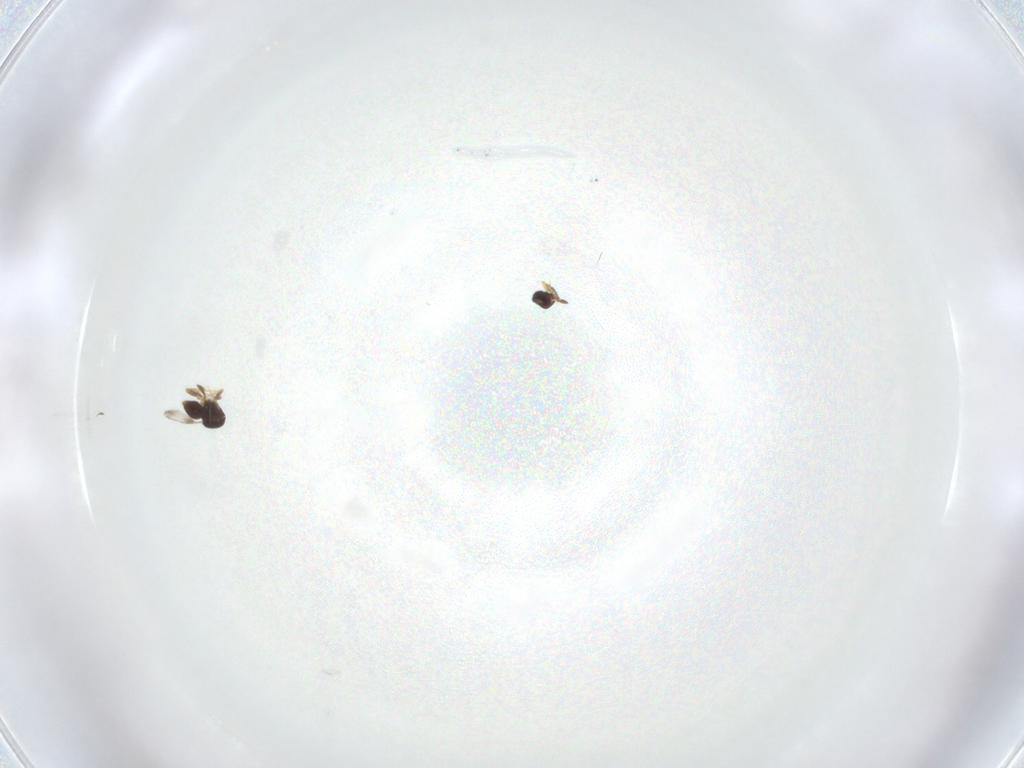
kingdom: Animalia
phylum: Arthropoda
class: Insecta
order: Hymenoptera
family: Ceraphronidae
